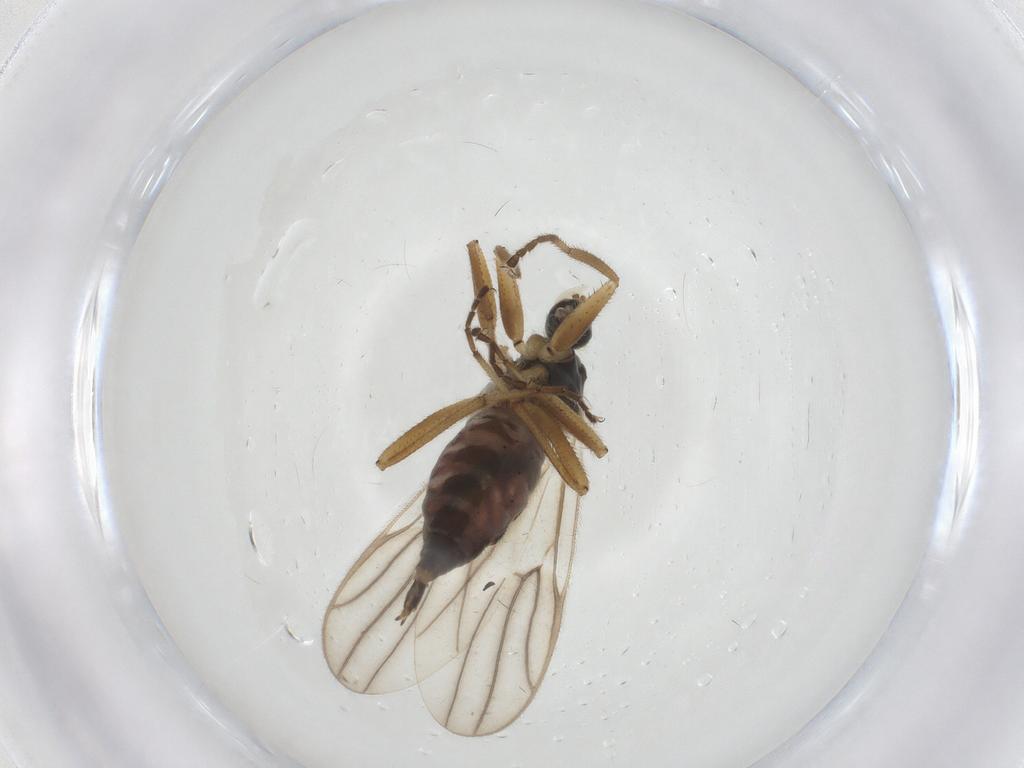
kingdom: Animalia
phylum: Arthropoda
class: Insecta
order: Diptera
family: Hybotidae
